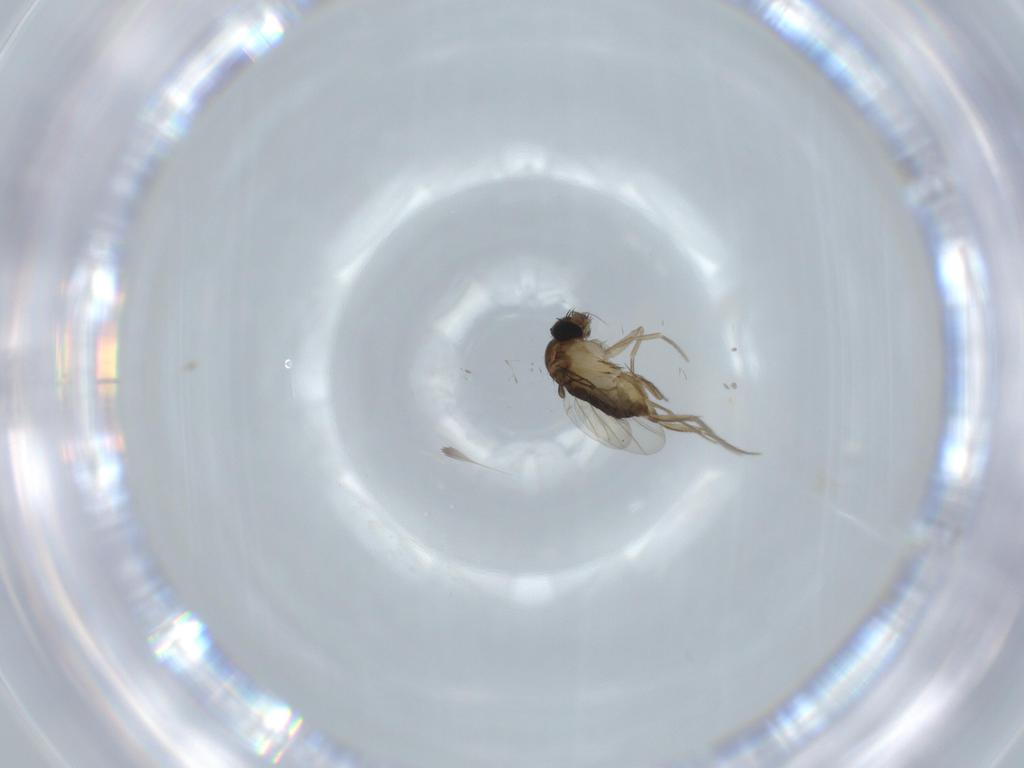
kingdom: Animalia
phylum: Arthropoda
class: Insecta
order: Diptera
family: Phoridae
